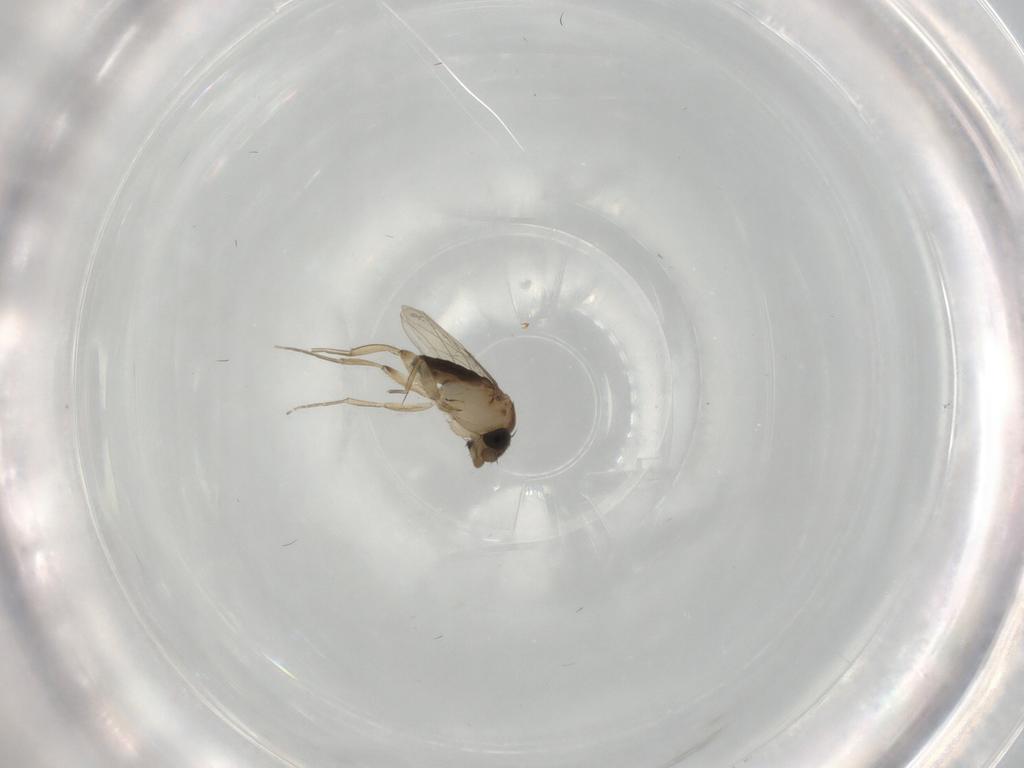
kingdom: Animalia
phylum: Arthropoda
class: Insecta
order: Diptera
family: Phoridae
